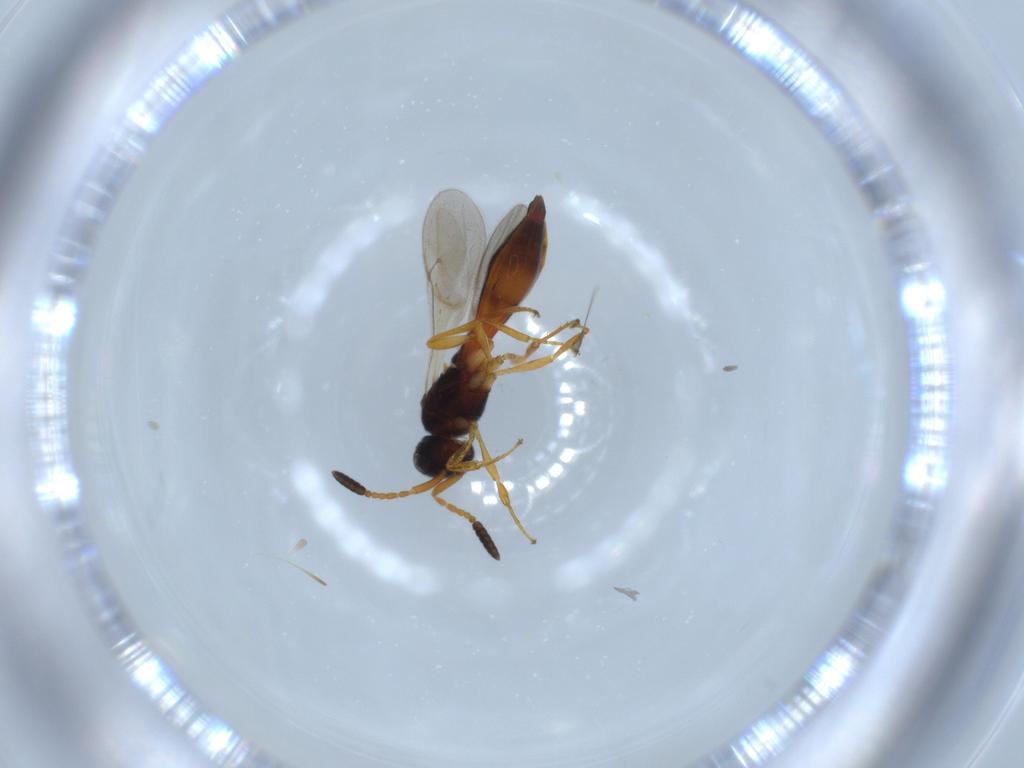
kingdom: Animalia
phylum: Arthropoda
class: Insecta
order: Hymenoptera
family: Scelionidae
